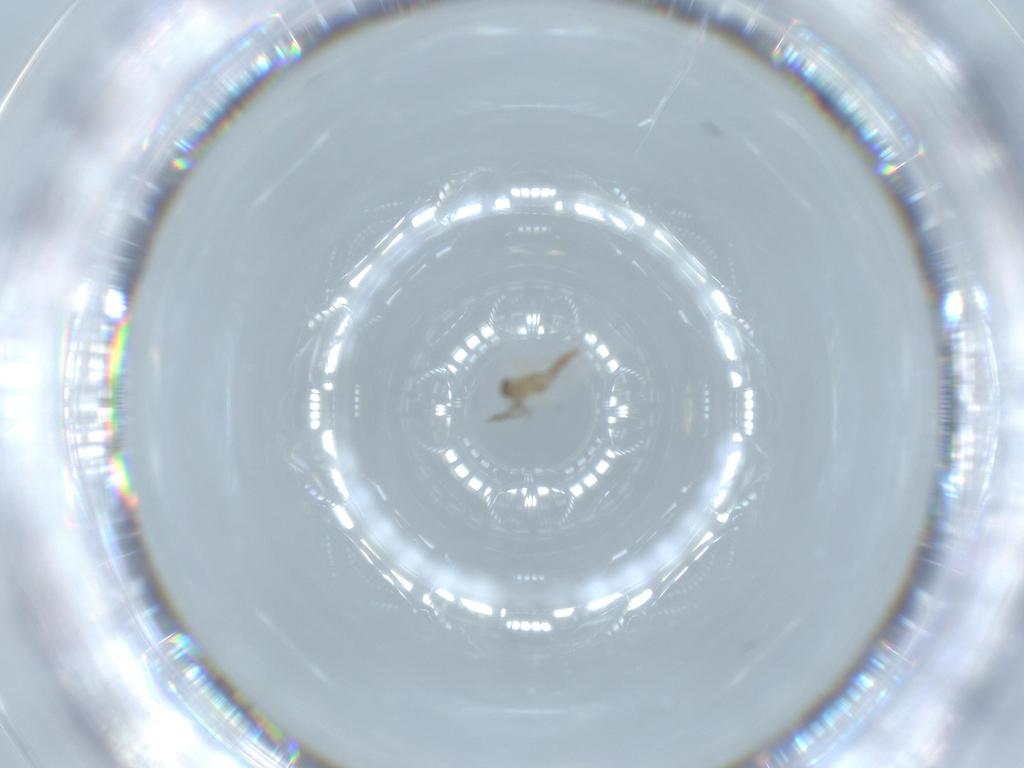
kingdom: Animalia
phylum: Arthropoda
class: Insecta
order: Diptera
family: Cecidomyiidae
